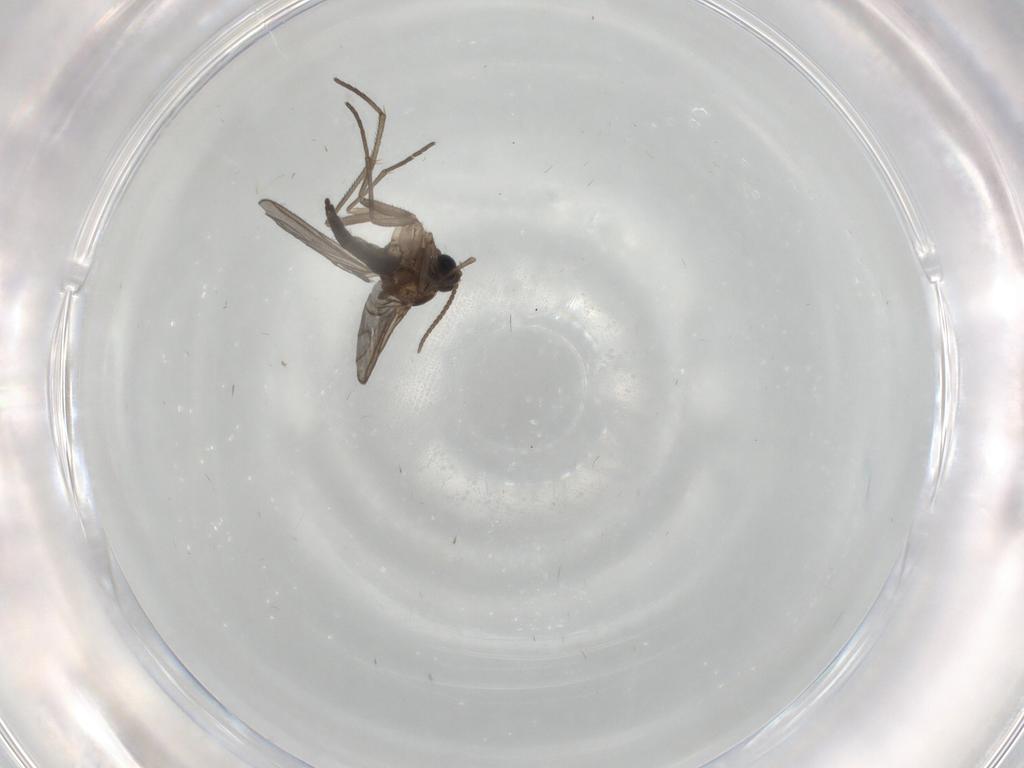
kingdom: Animalia
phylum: Arthropoda
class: Insecta
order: Diptera
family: Sciaridae
